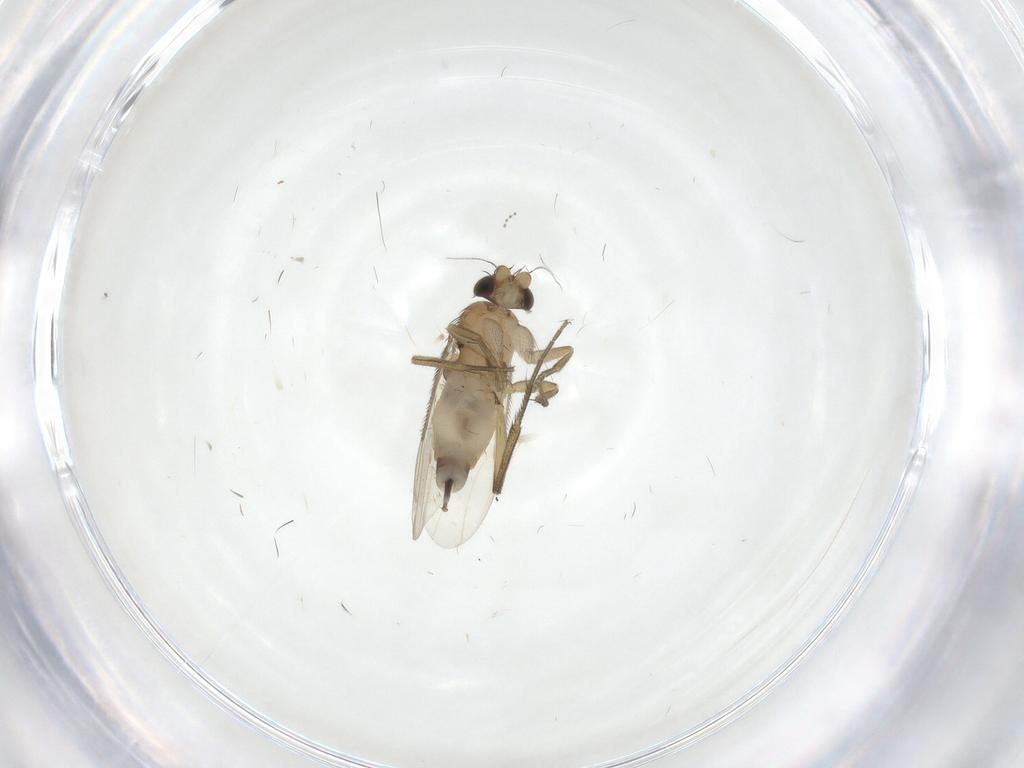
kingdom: Animalia
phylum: Arthropoda
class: Insecta
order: Diptera
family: Phoridae
